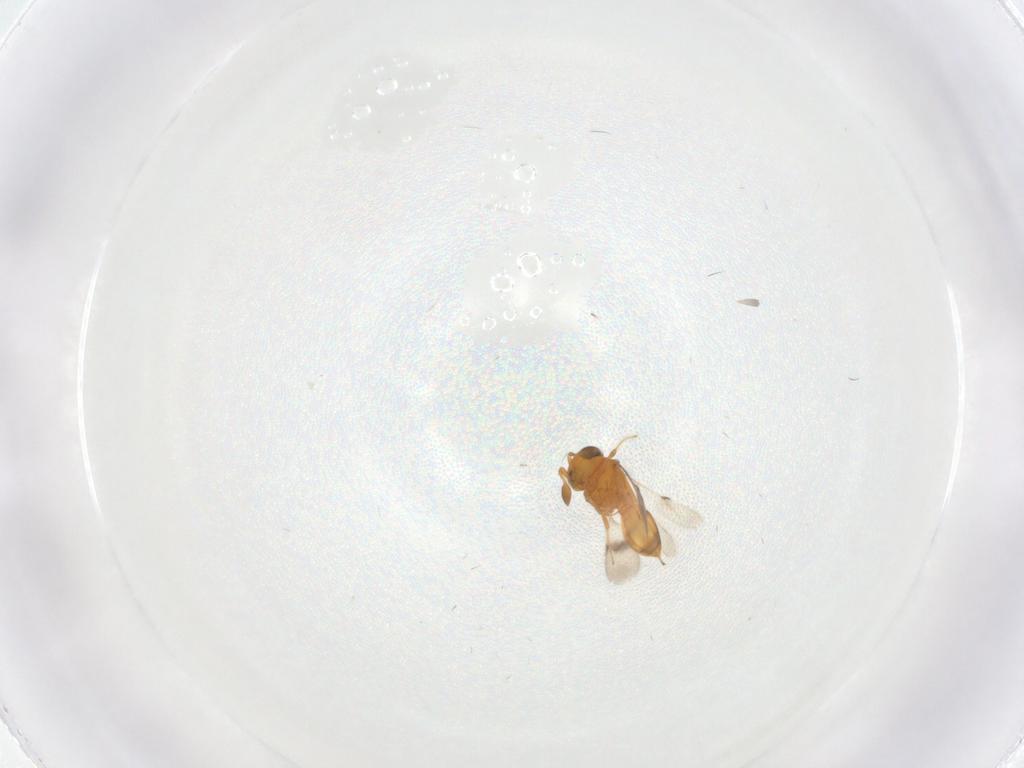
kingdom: Animalia
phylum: Arthropoda
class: Insecta
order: Hymenoptera
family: Scelionidae
